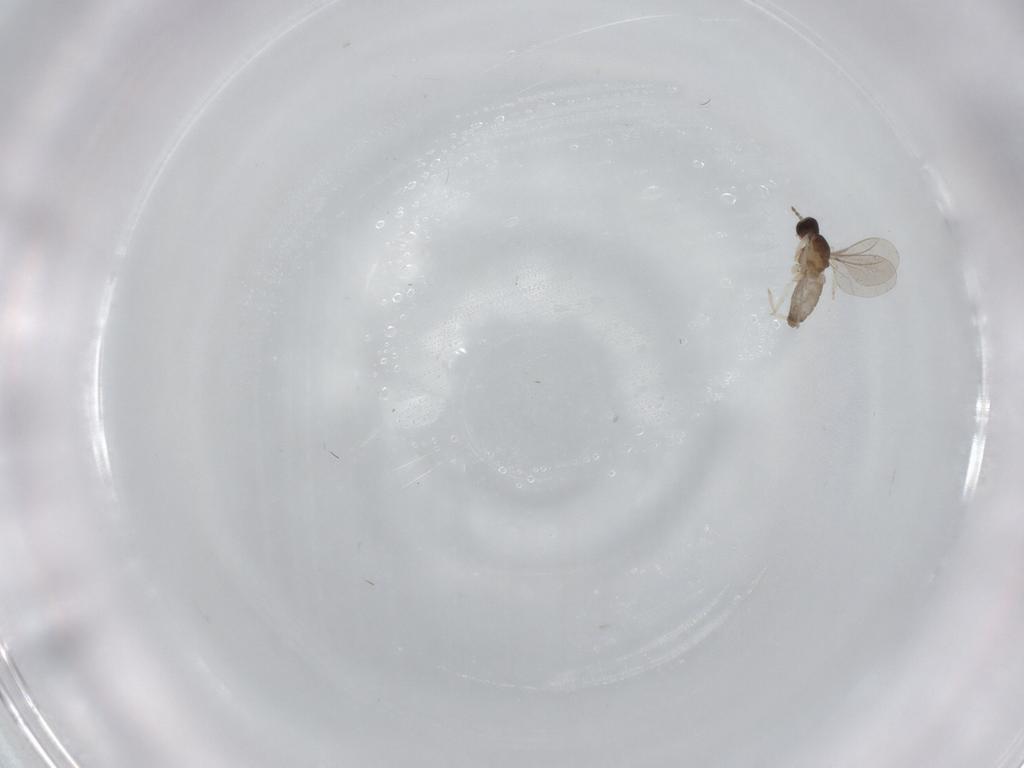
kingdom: Animalia
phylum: Arthropoda
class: Insecta
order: Diptera
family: Cecidomyiidae
